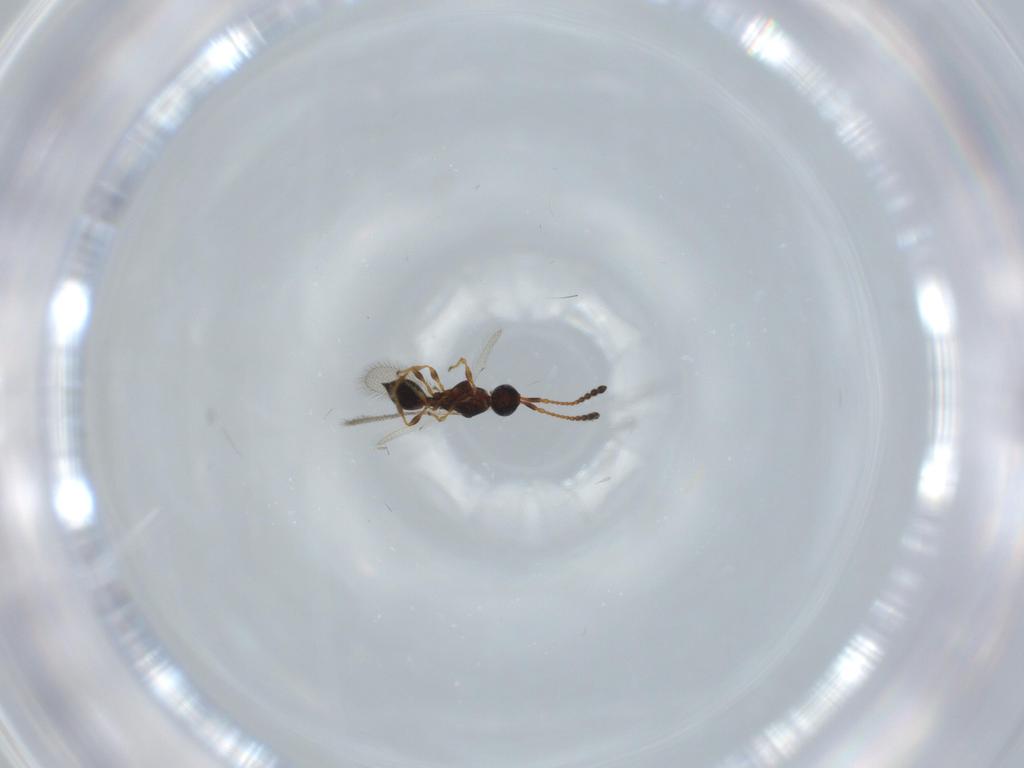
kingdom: Animalia
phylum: Arthropoda
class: Insecta
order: Hymenoptera
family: Diapriidae
